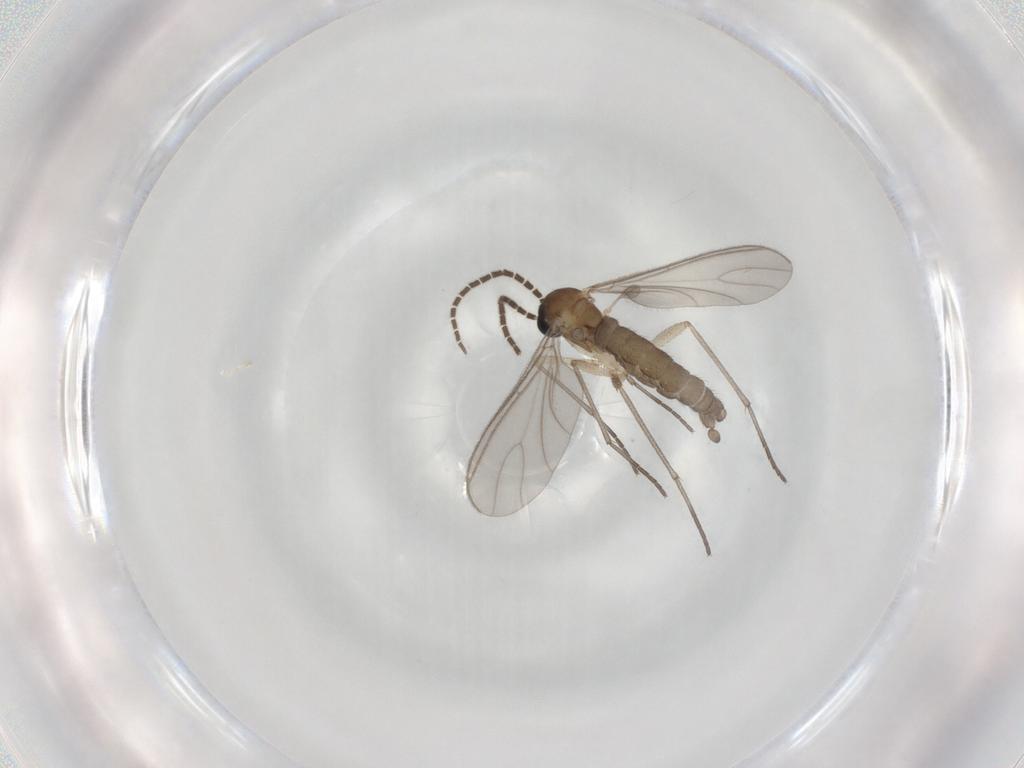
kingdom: Animalia
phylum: Arthropoda
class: Insecta
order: Diptera
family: Sciaridae
